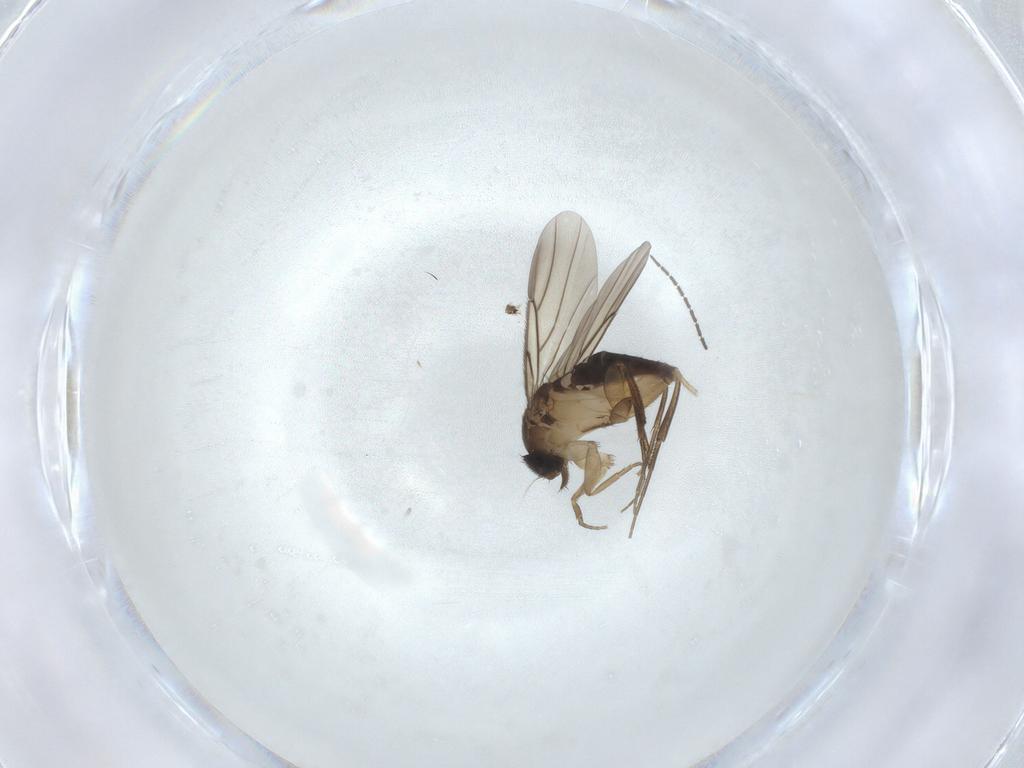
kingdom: Animalia
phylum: Arthropoda
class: Insecta
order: Diptera
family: Phoridae
